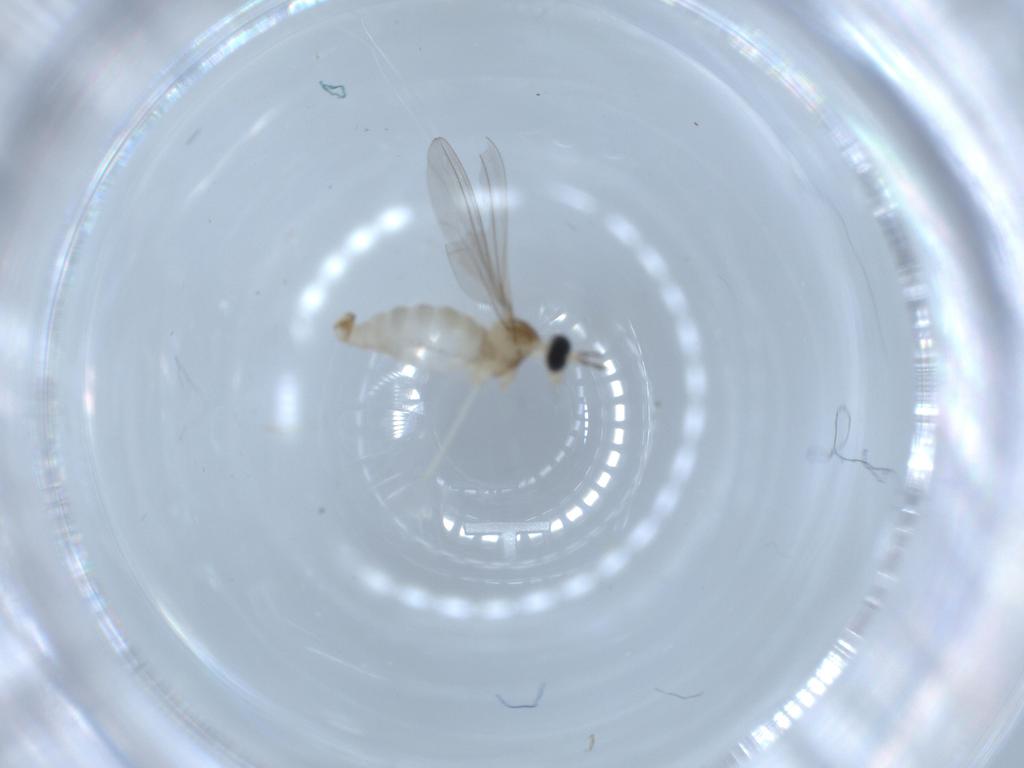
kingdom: Animalia
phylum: Arthropoda
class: Insecta
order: Diptera
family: Cecidomyiidae
